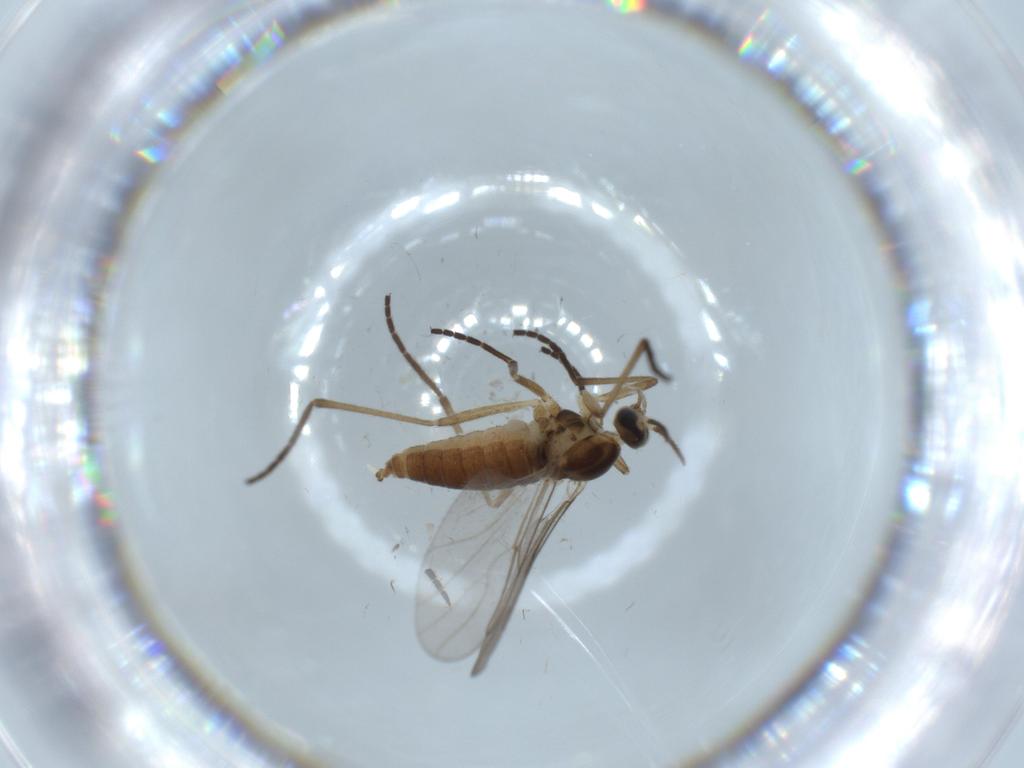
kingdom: Animalia
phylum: Arthropoda
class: Insecta
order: Diptera
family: Cecidomyiidae
